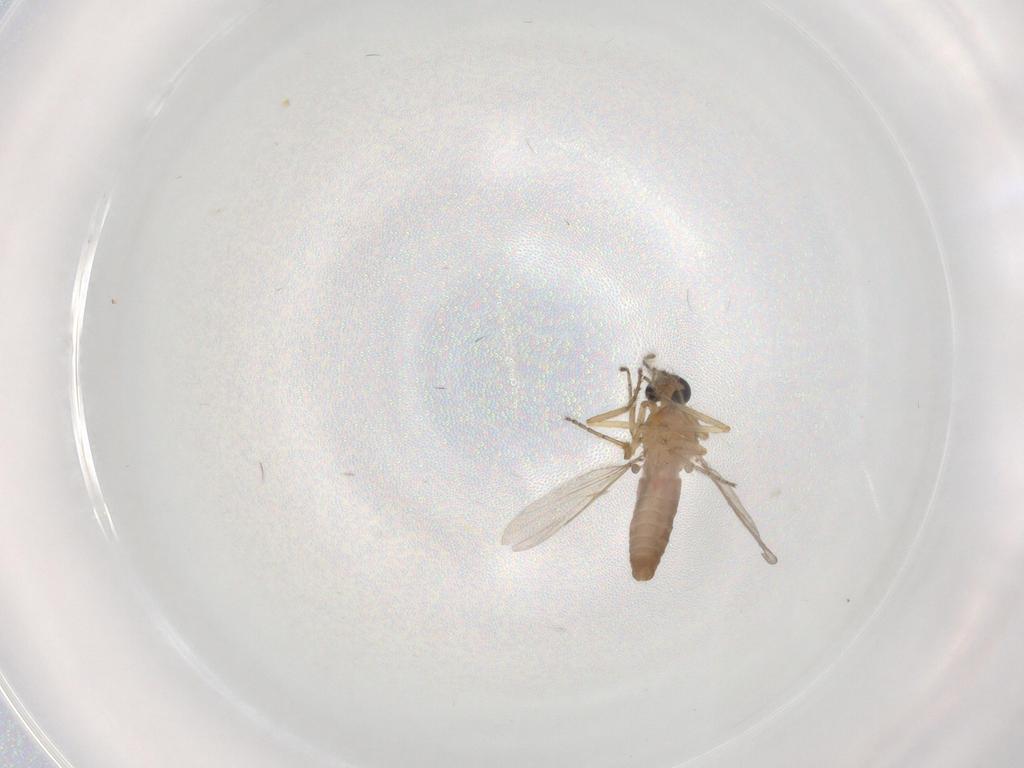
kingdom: Animalia
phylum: Arthropoda
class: Insecta
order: Diptera
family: Ceratopogonidae
